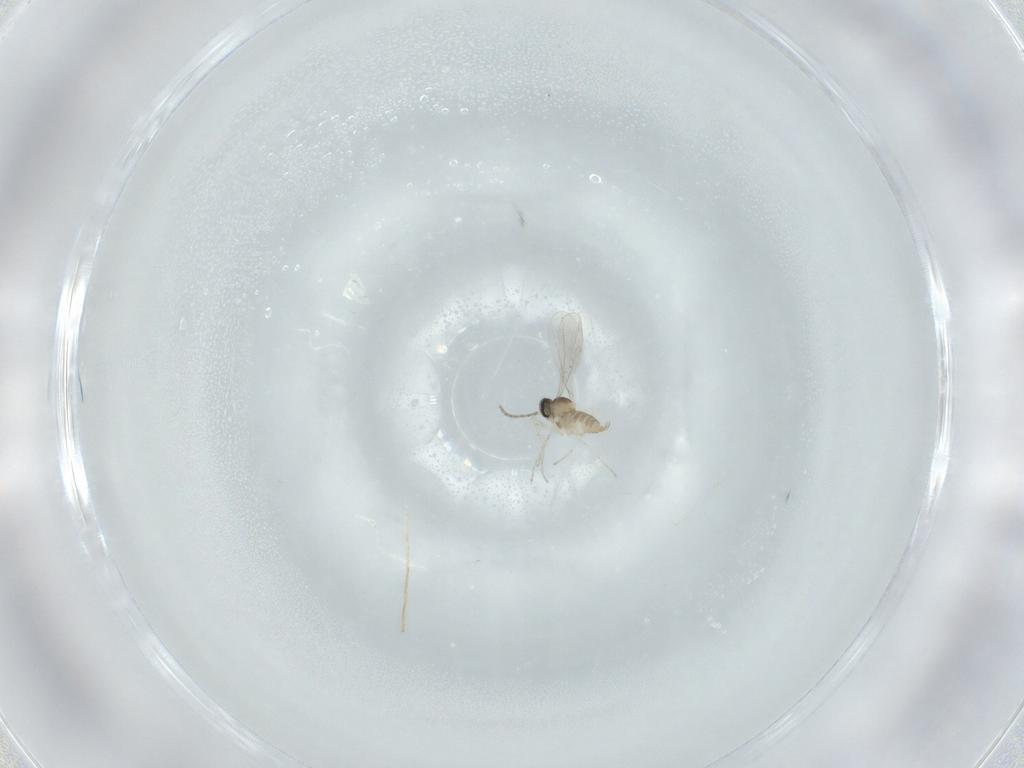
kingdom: Animalia
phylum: Arthropoda
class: Insecta
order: Diptera
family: Cecidomyiidae
